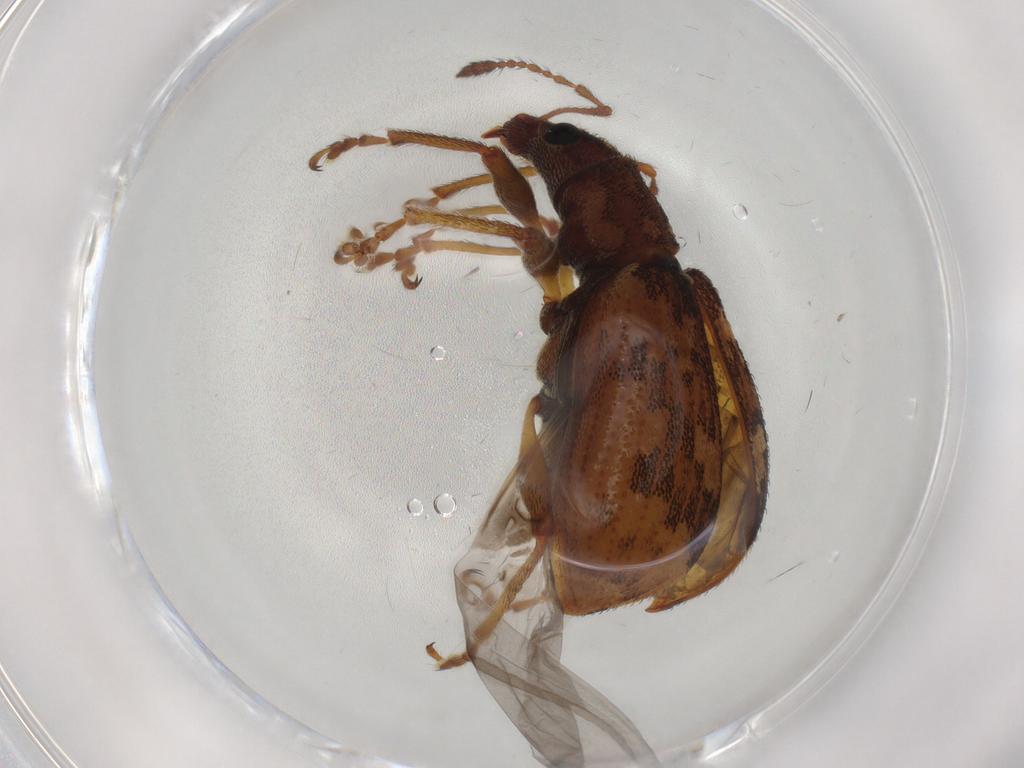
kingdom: Animalia
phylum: Arthropoda
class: Insecta
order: Coleoptera
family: Curculionidae
